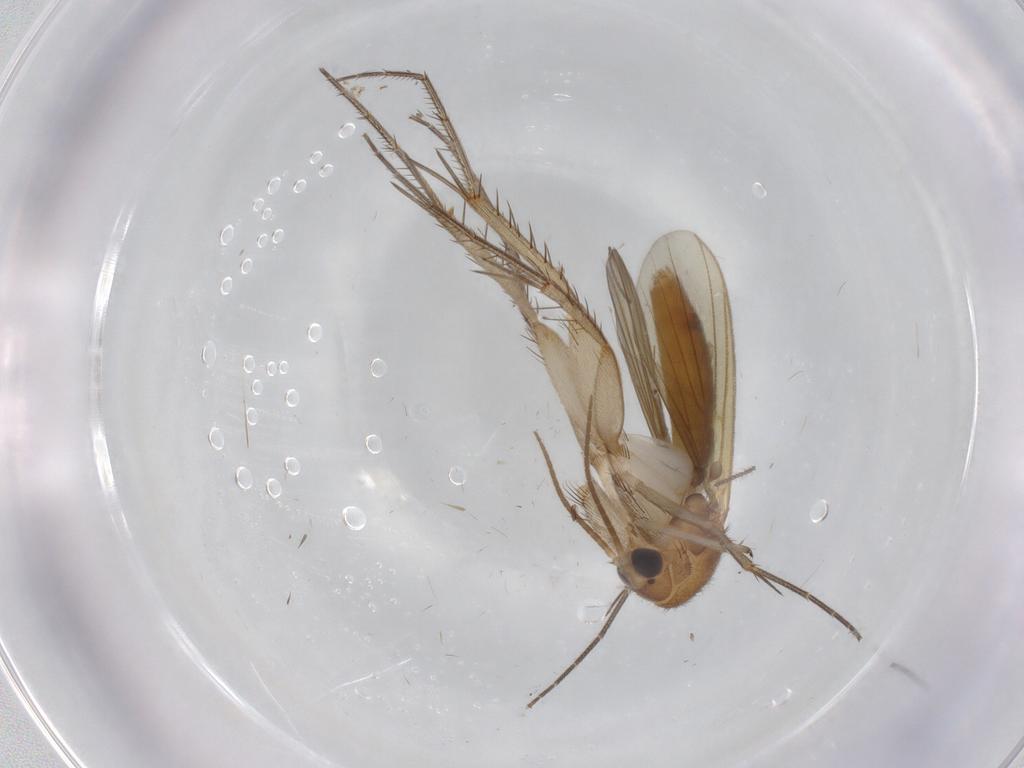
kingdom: Animalia
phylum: Arthropoda
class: Insecta
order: Diptera
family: Mycetophilidae
